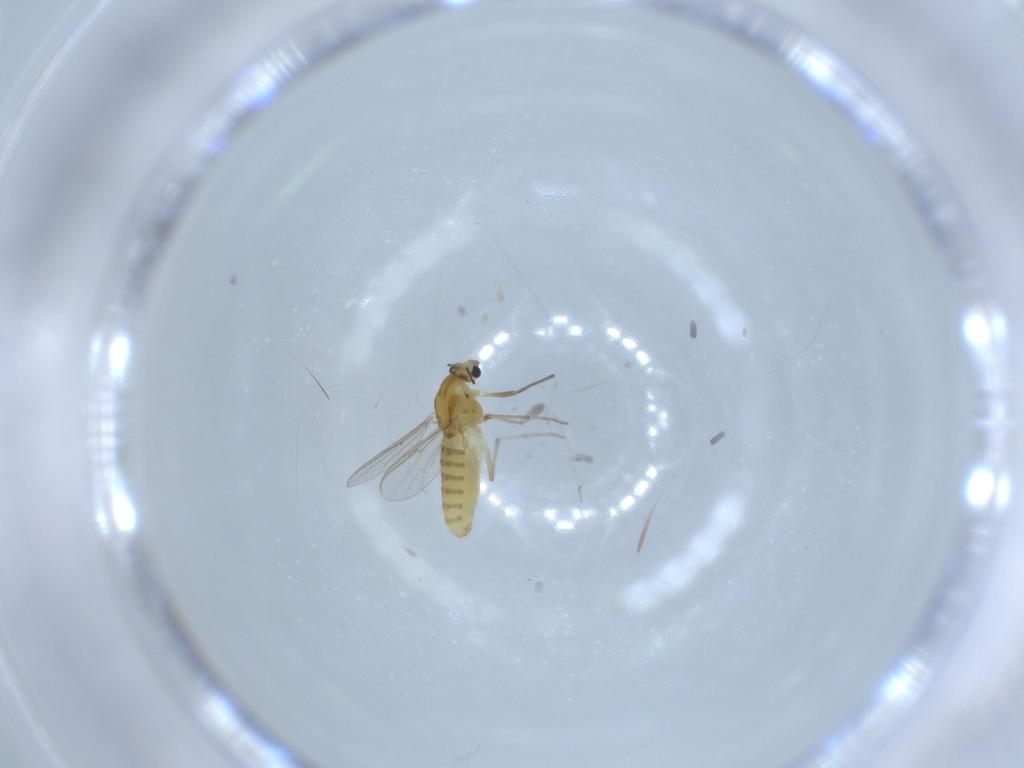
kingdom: Animalia
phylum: Arthropoda
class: Insecta
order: Diptera
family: Chironomidae
